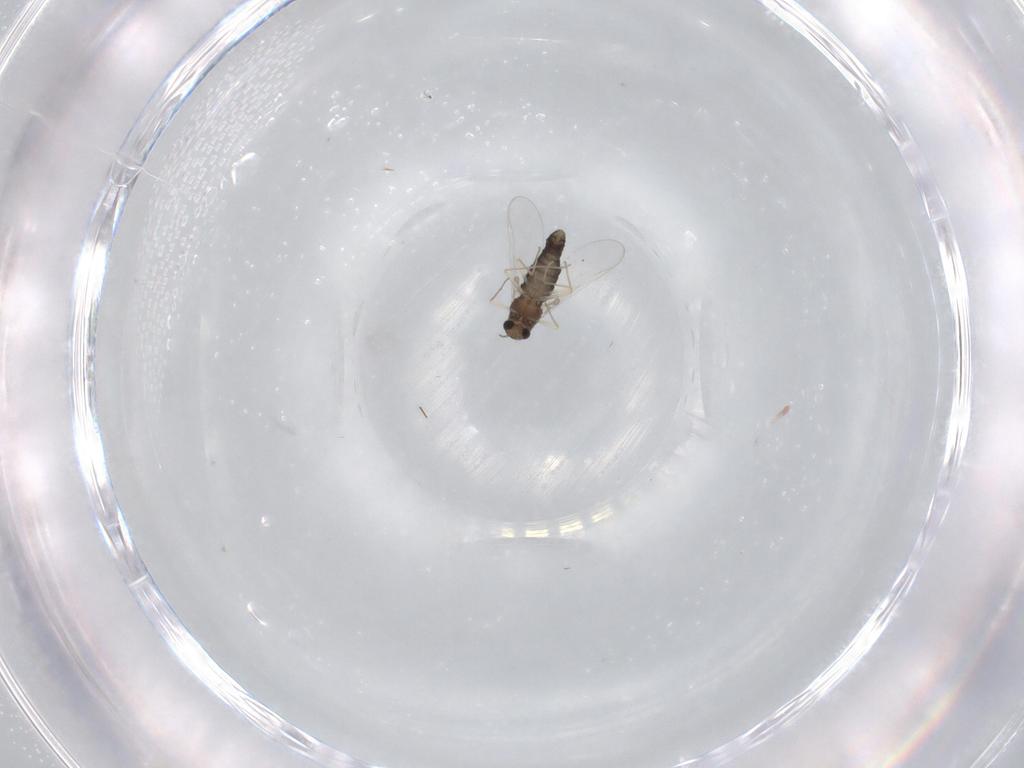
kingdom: Animalia
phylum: Arthropoda
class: Insecta
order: Diptera
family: Chironomidae
